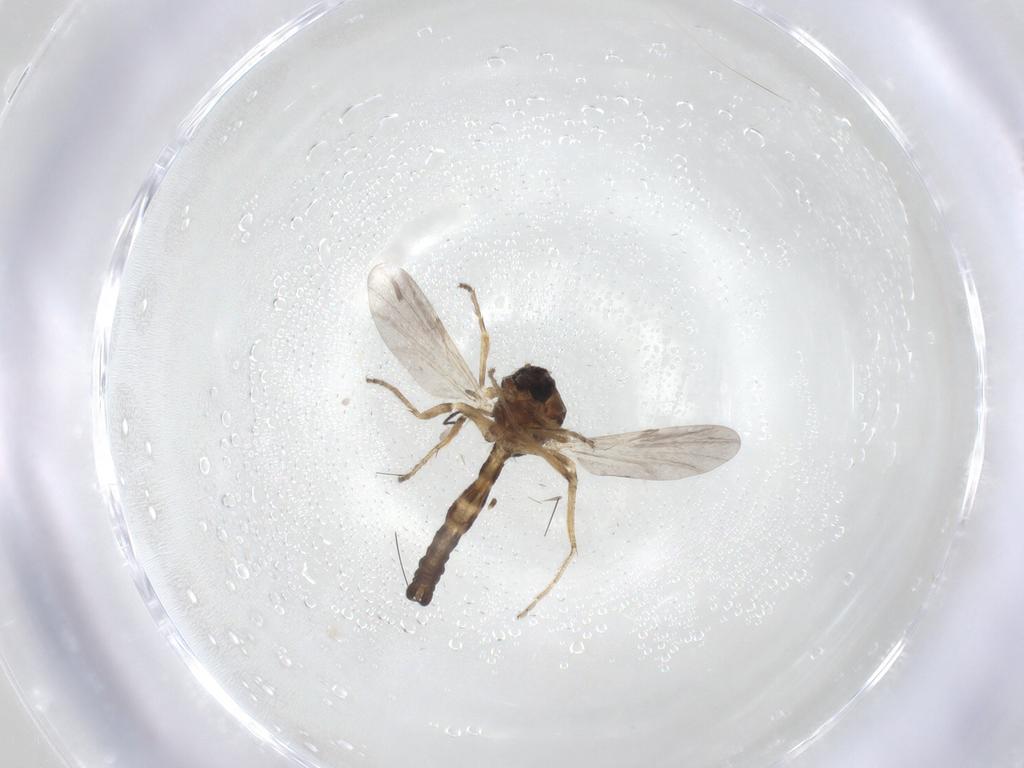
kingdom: Animalia
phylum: Arthropoda
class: Insecta
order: Diptera
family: Ceratopogonidae
